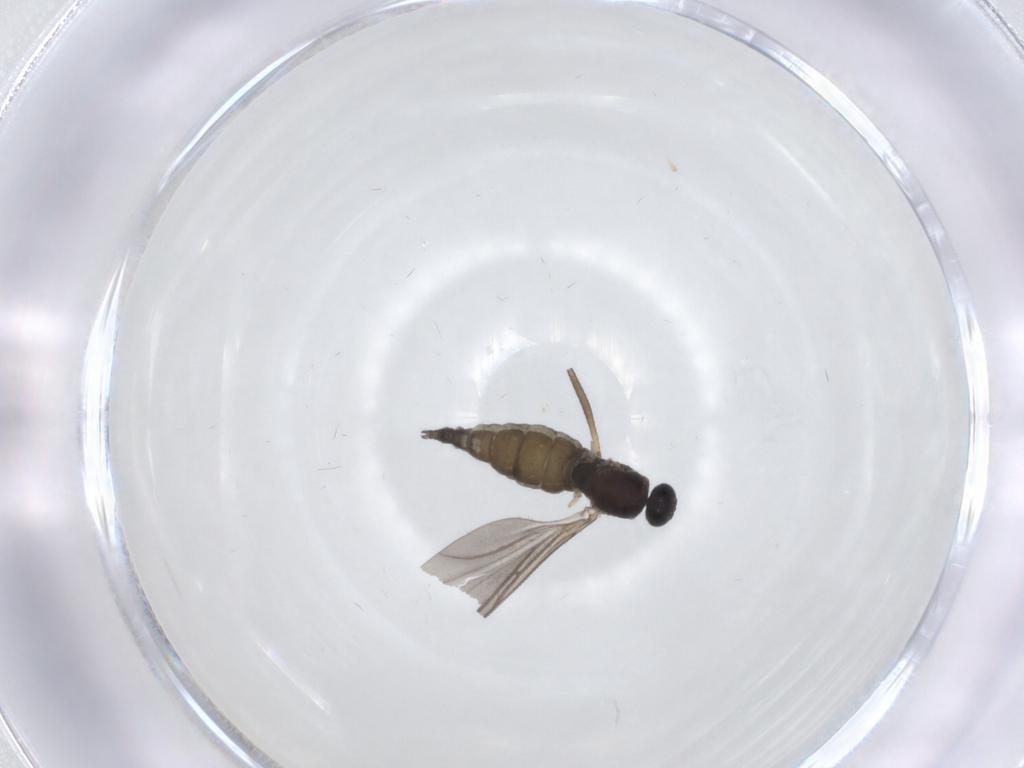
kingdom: Animalia
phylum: Arthropoda
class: Insecta
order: Diptera
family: Sciaridae
